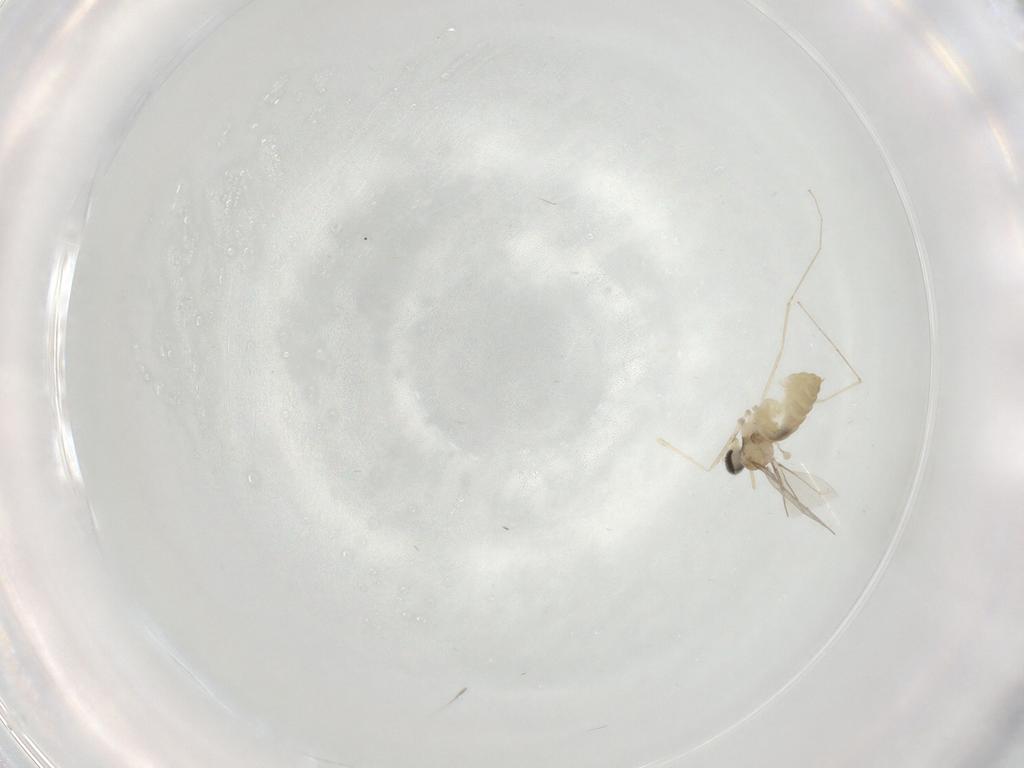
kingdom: Animalia
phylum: Arthropoda
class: Insecta
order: Diptera
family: Cecidomyiidae
